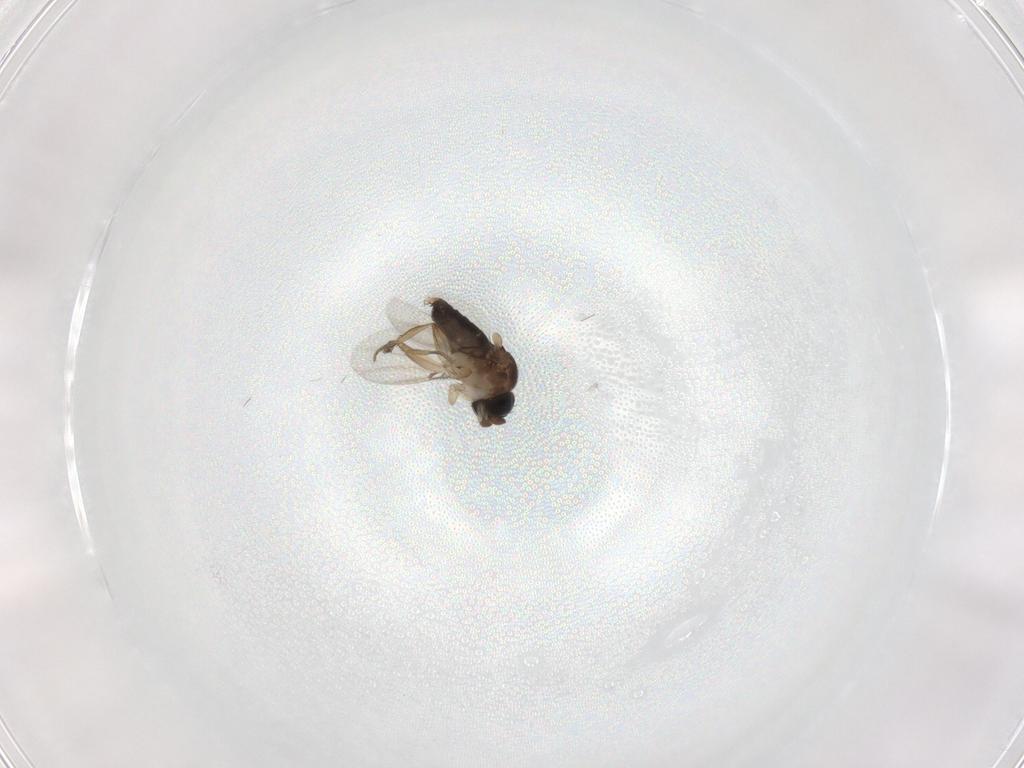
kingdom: Animalia
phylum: Arthropoda
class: Insecta
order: Diptera
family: Phoridae
